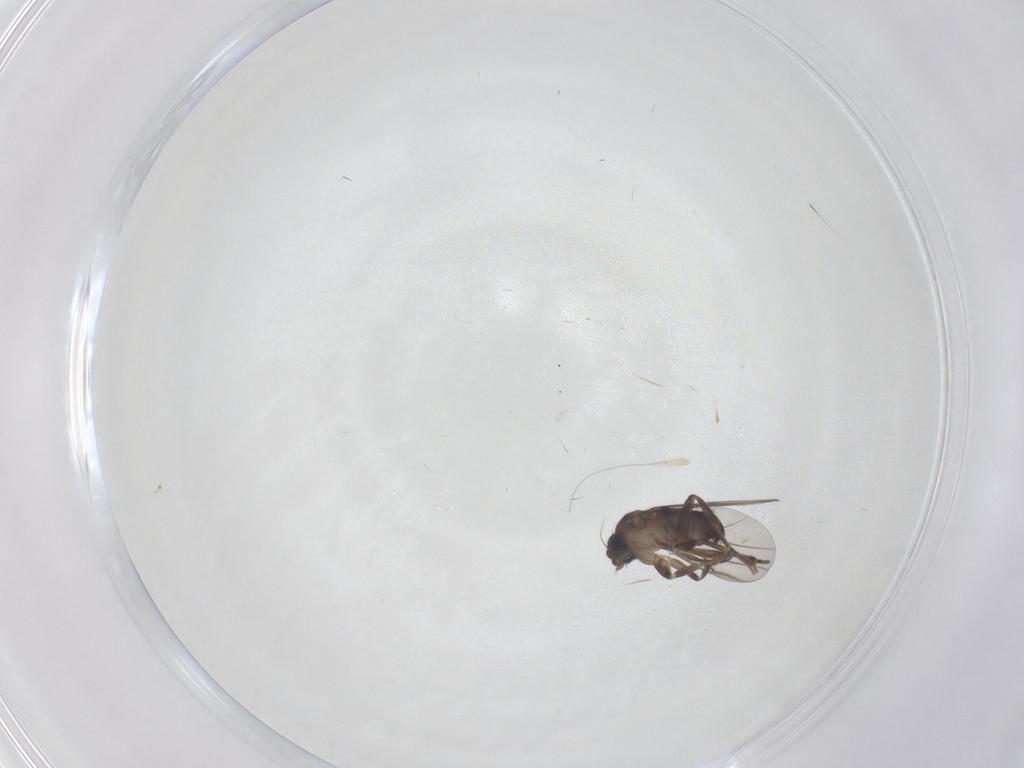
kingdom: Animalia
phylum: Arthropoda
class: Insecta
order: Diptera
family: Sciaridae
